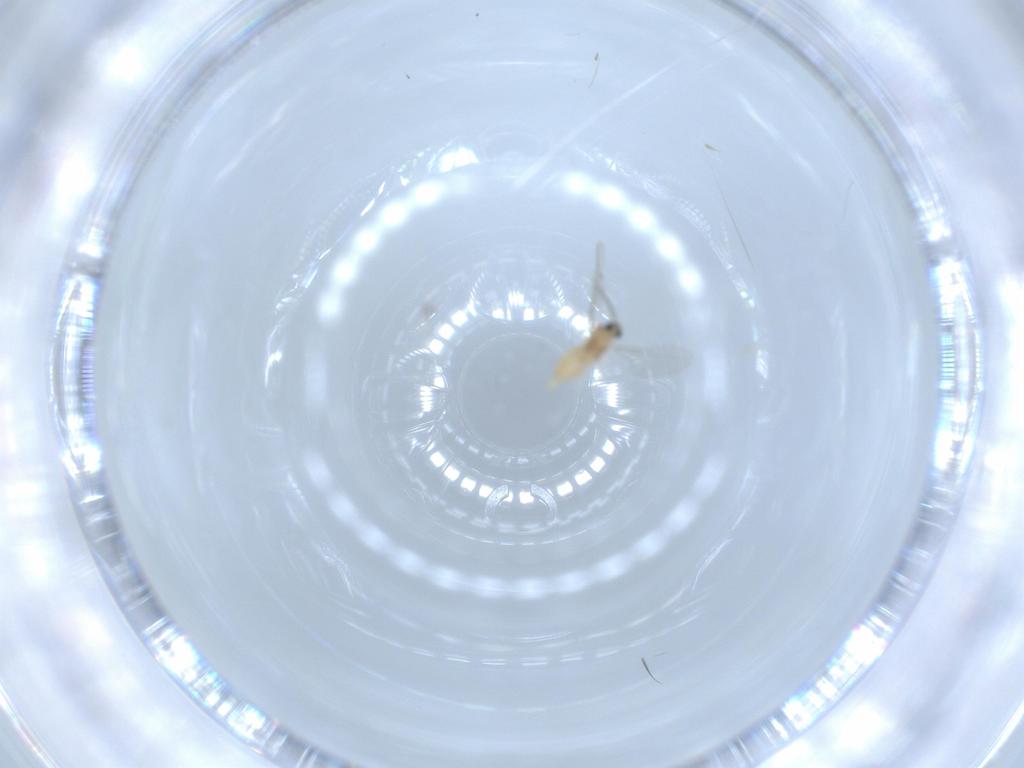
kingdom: Animalia
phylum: Arthropoda
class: Insecta
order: Diptera
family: Cecidomyiidae
